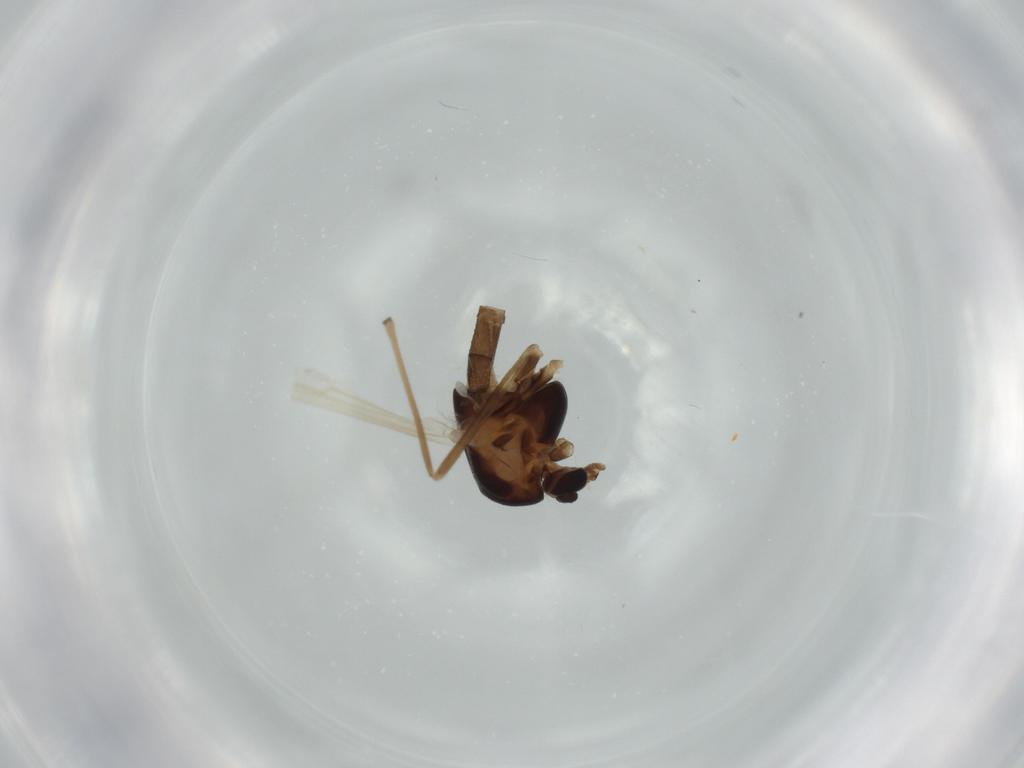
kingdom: Animalia
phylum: Arthropoda
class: Insecta
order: Diptera
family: Chironomidae
